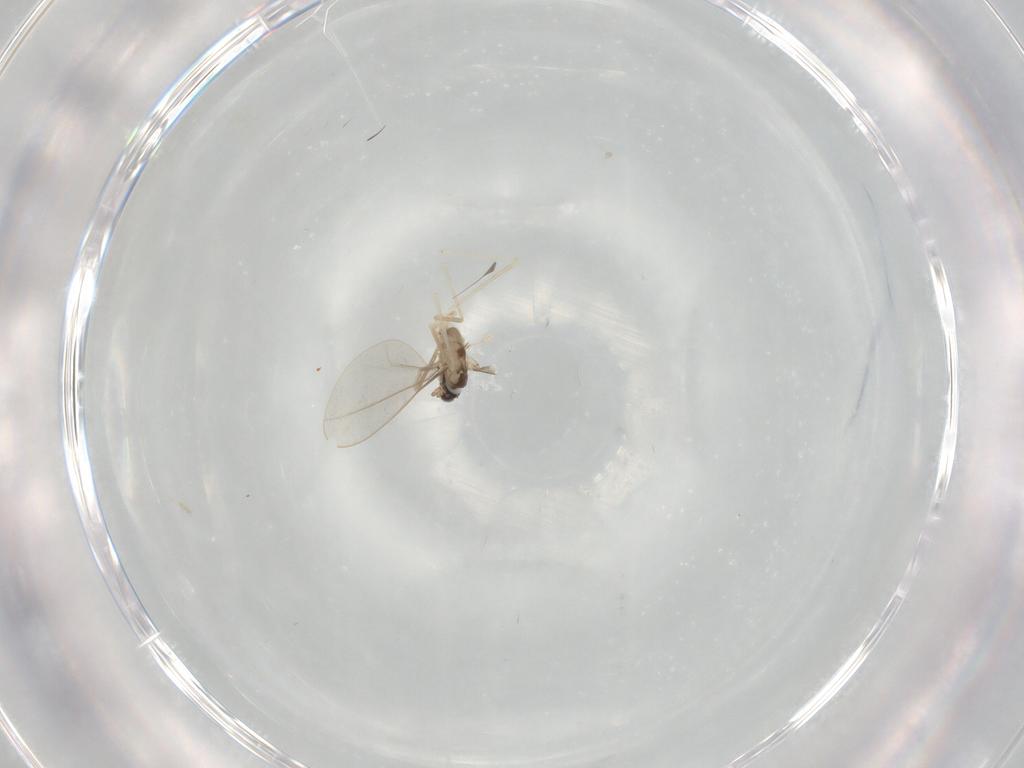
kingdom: Animalia
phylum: Arthropoda
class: Insecta
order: Diptera
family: Cecidomyiidae
